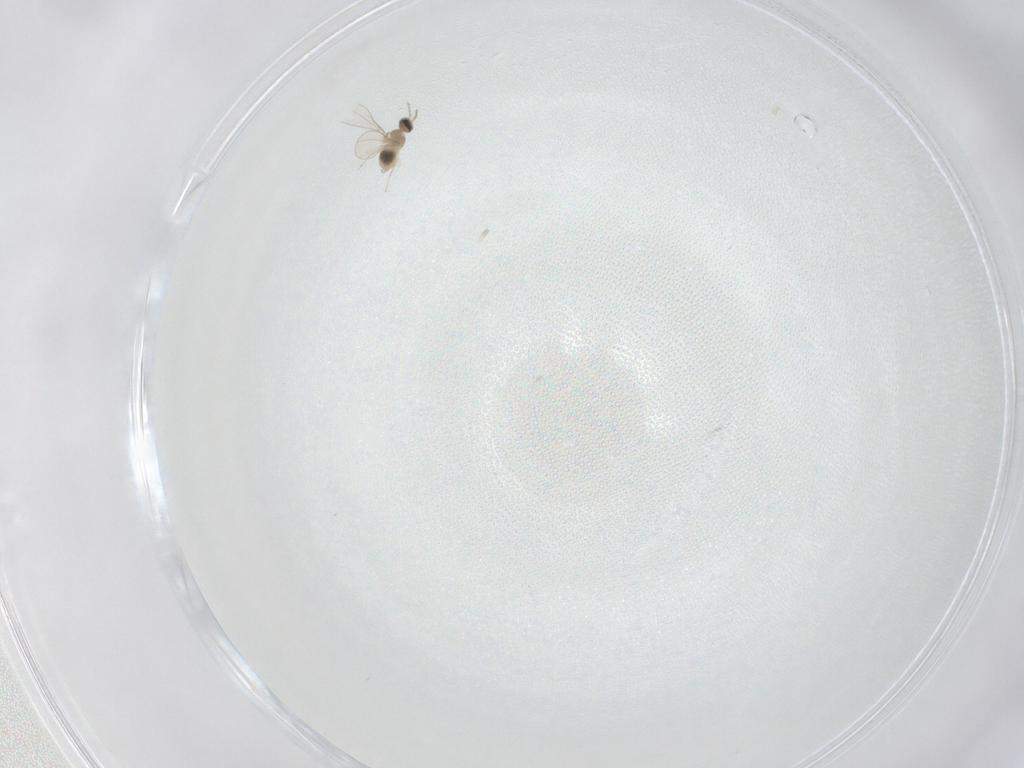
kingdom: Animalia
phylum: Arthropoda
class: Insecta
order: Diptera
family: Cecidomyiidae
